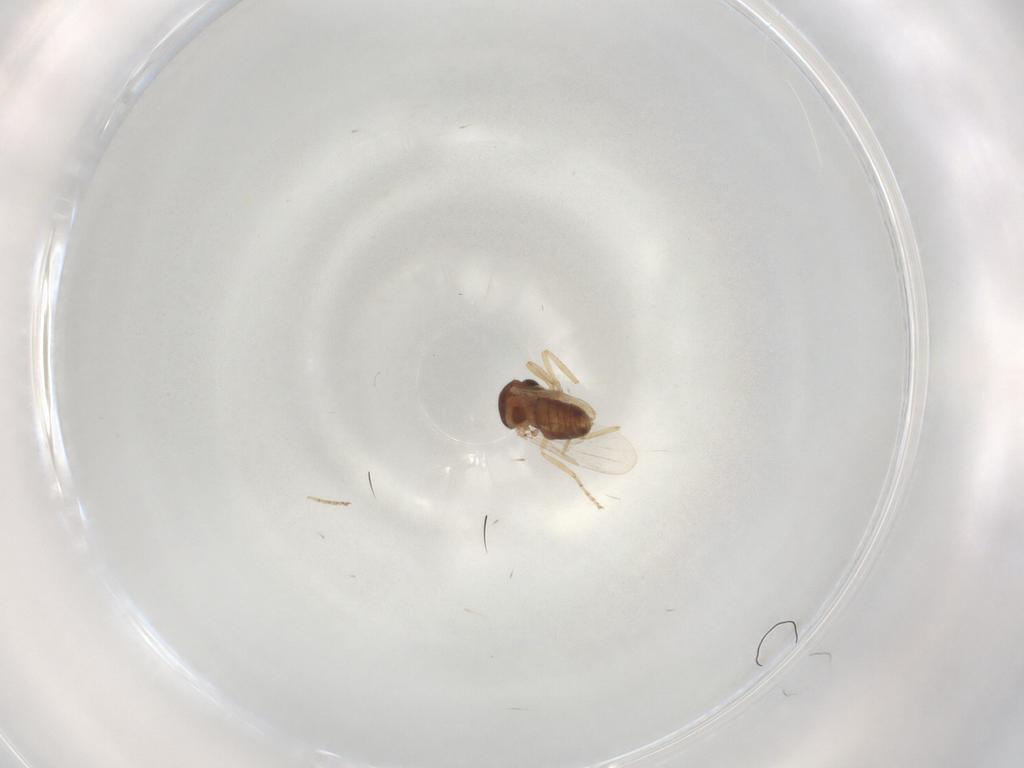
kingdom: Animalia
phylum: Arthropoda
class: Insecta
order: Diptera
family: Ceratopogonidae
